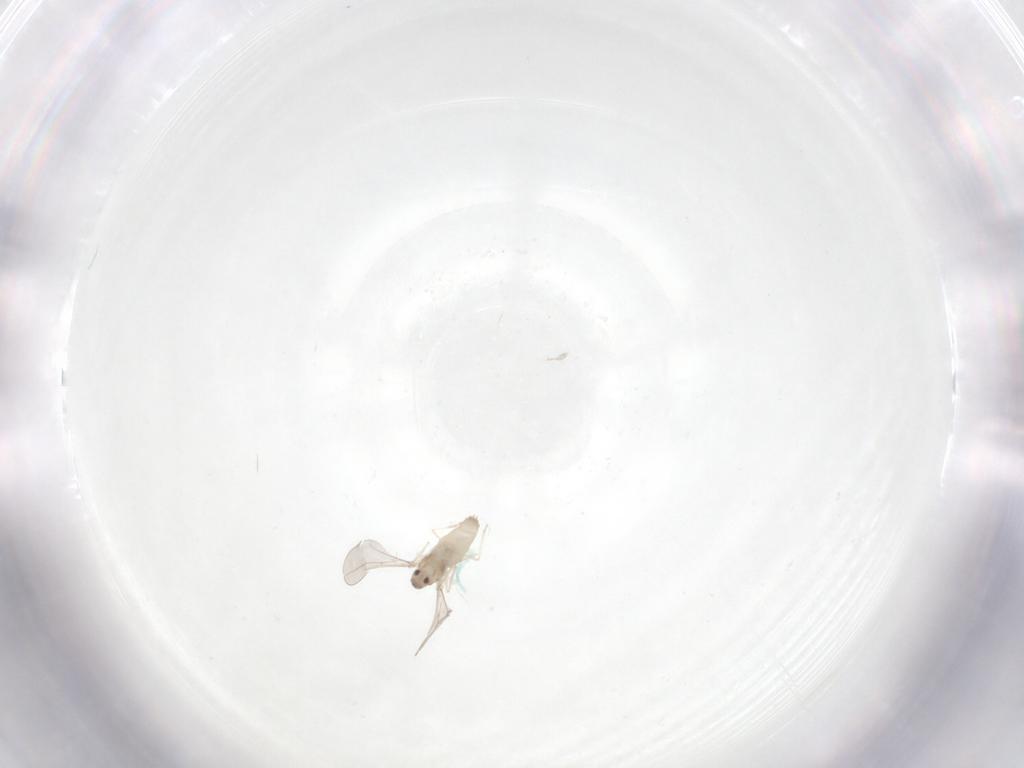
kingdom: Animalia
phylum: Arthropoda
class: Insecta
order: Diptera
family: Cecidomyiidae
